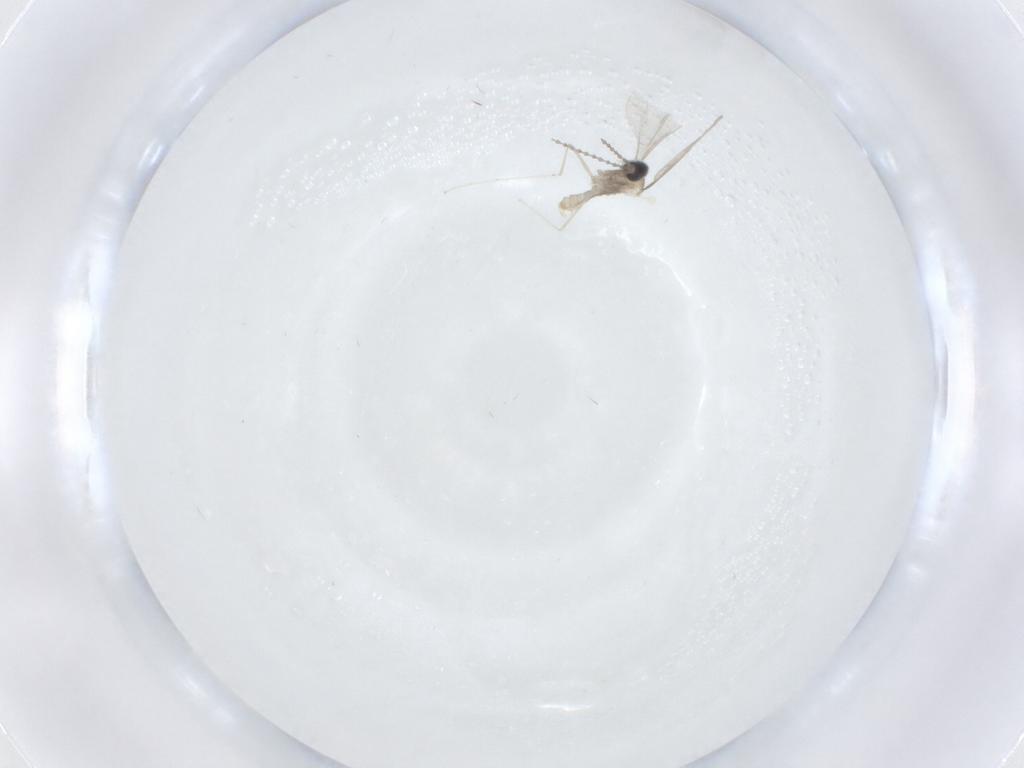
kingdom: Animalia
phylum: Arthropoda
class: Insecta
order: Diptera
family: Cecidomyiidae
